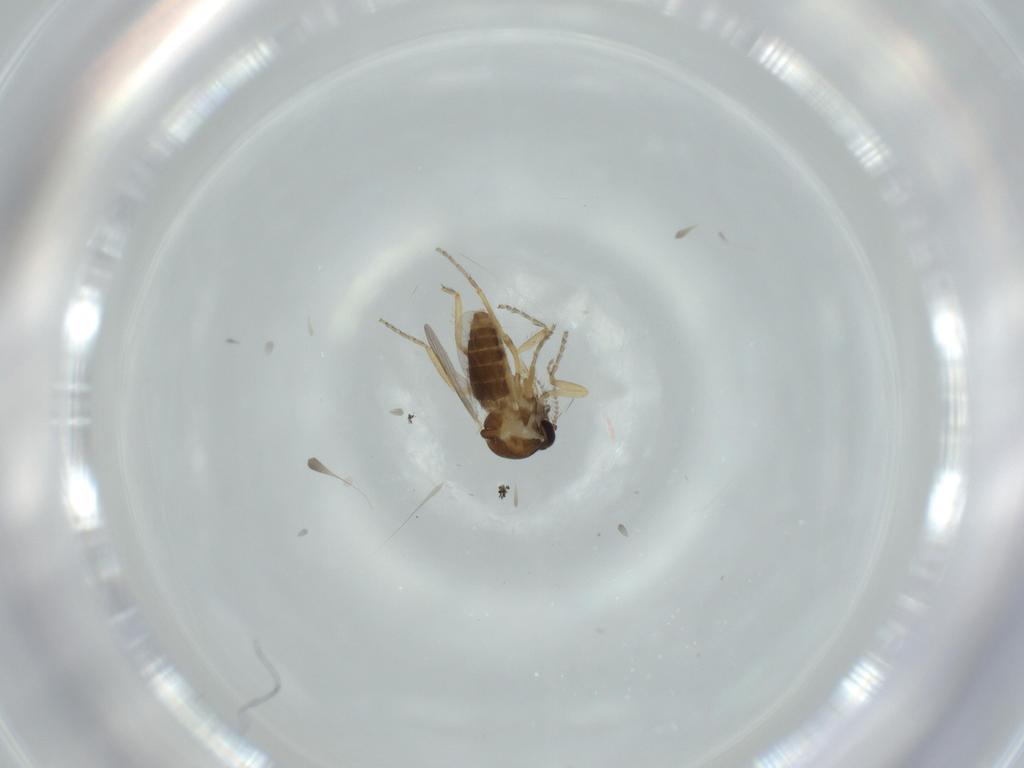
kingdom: Animalia
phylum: Arthropoda
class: Insecta
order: Diptera
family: Ceratopogonidae
